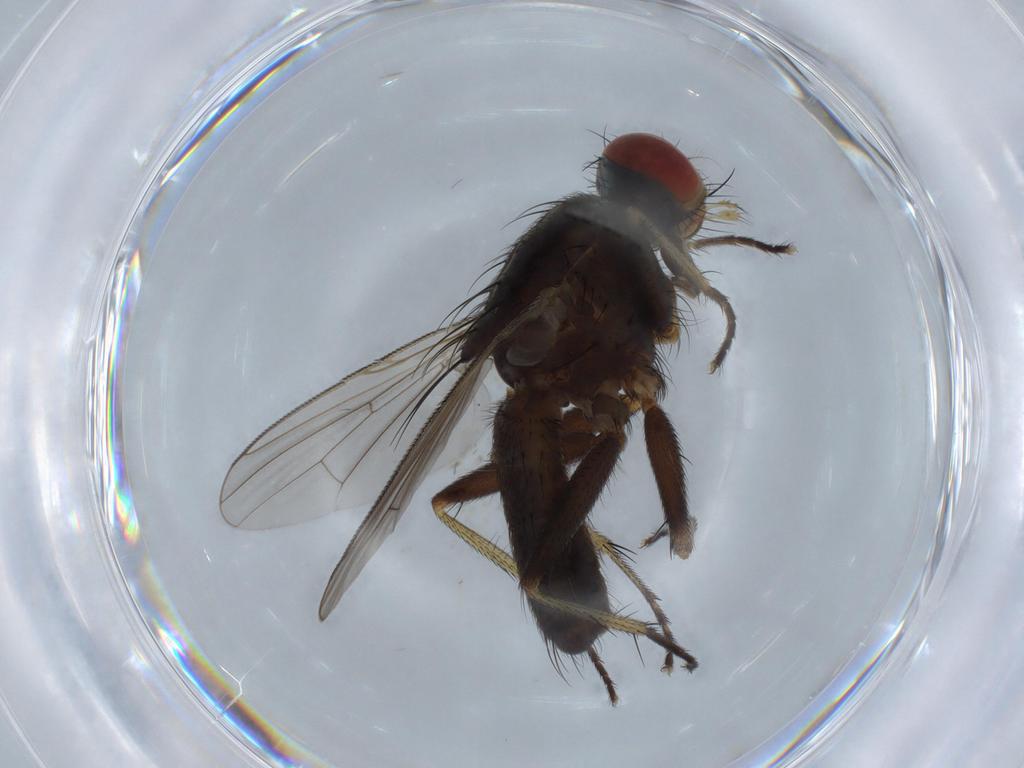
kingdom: Animalia
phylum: Arthropoda
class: Insecta
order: Diptera
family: Muscidae
